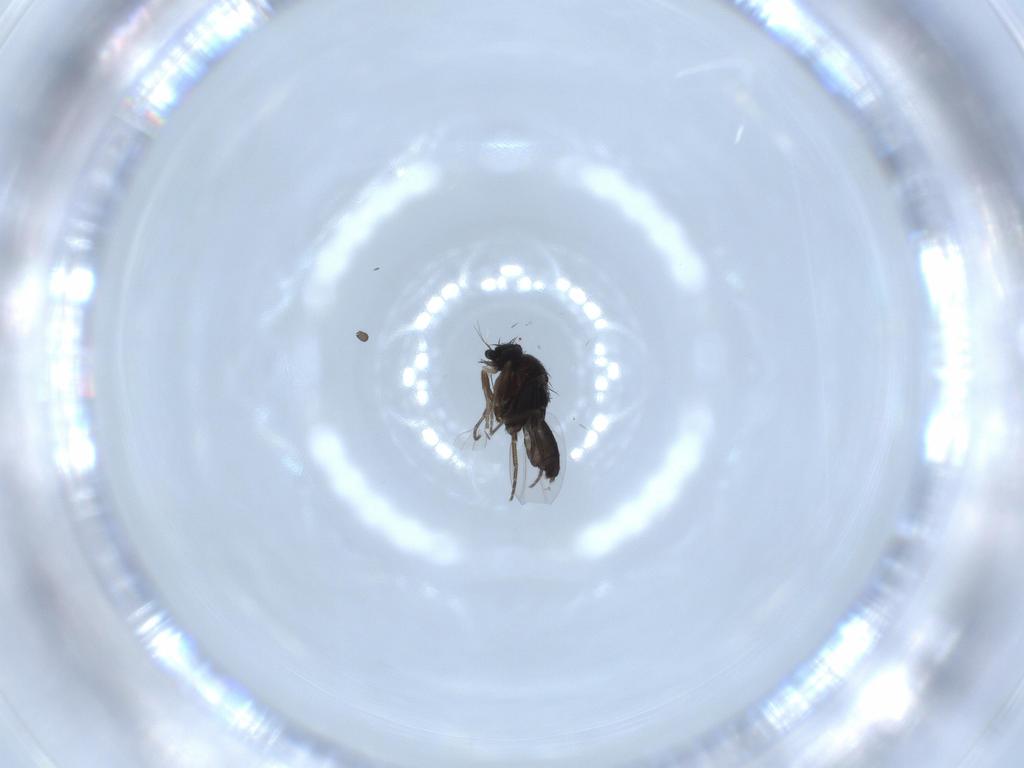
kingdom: Animalia
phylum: Arthropoda
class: Insecta
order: Diptera
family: Phoridae
